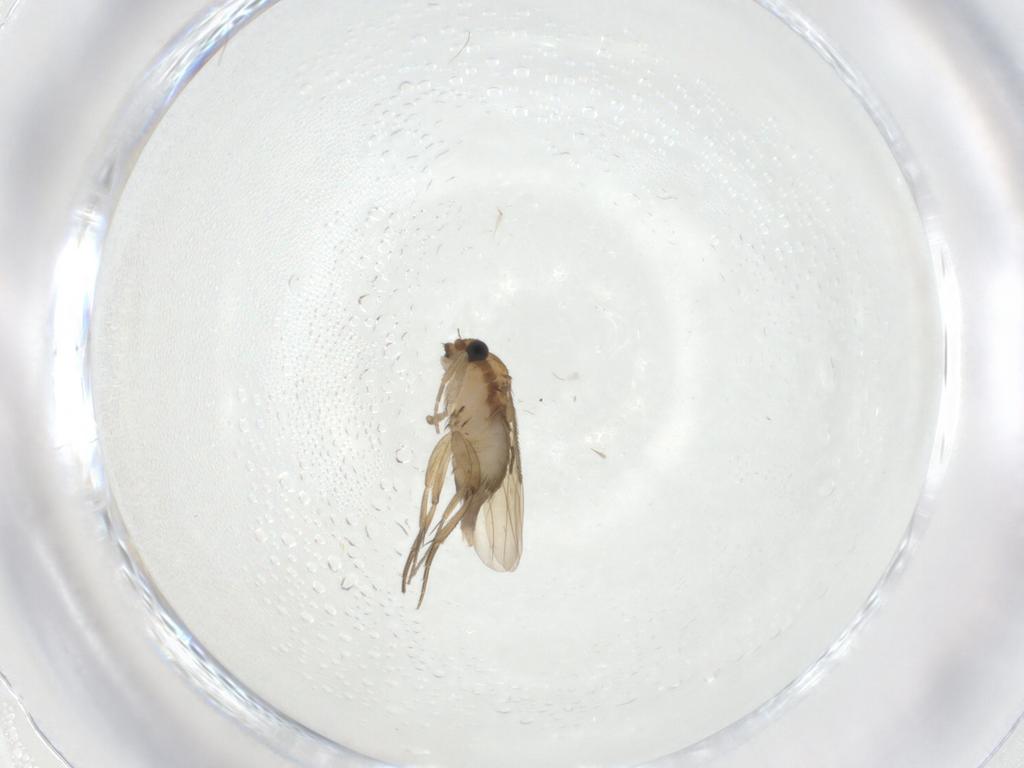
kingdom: Animalia
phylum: Arthropoda
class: Insecta
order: Diptera
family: Phoridae
